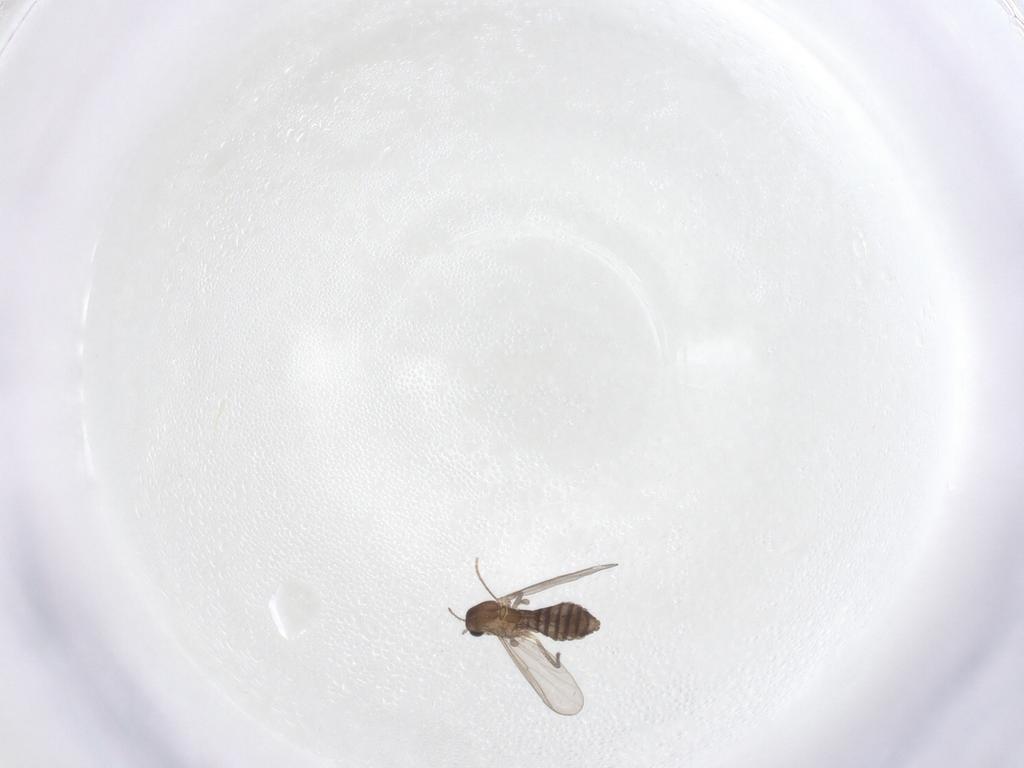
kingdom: Animalia
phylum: Arthropoda
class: Insecta
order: Diptera
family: Chironomidae
